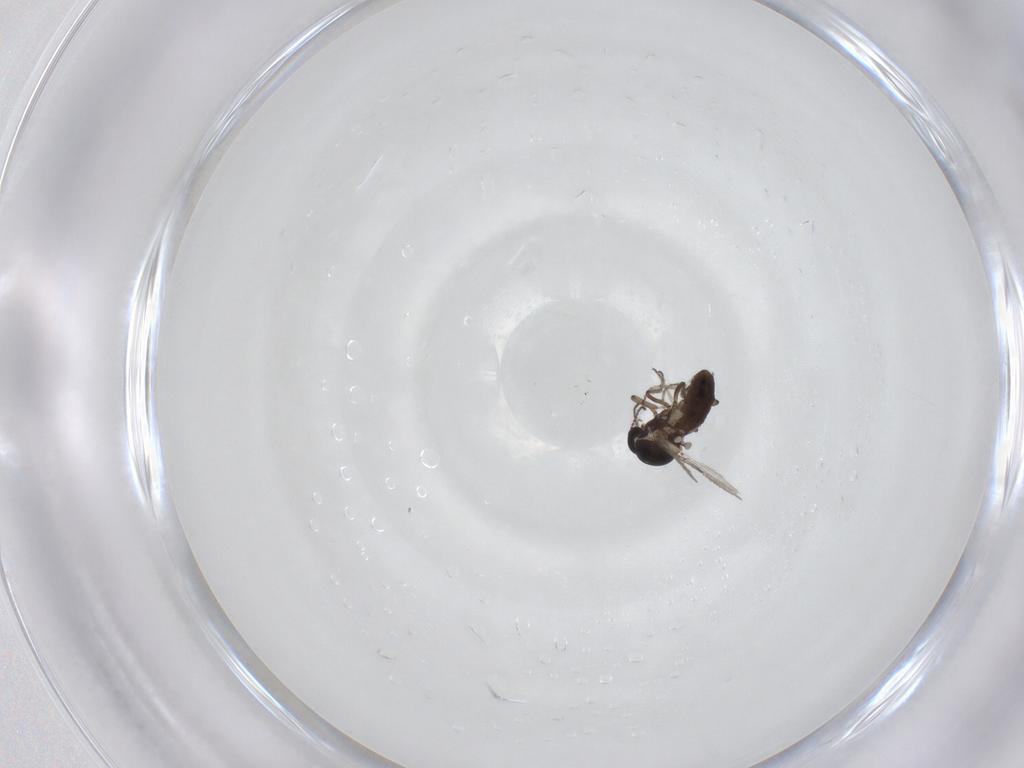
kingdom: Animalia
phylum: Arthropoda
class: Insecta
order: Diptera
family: Ceratopogonidae
